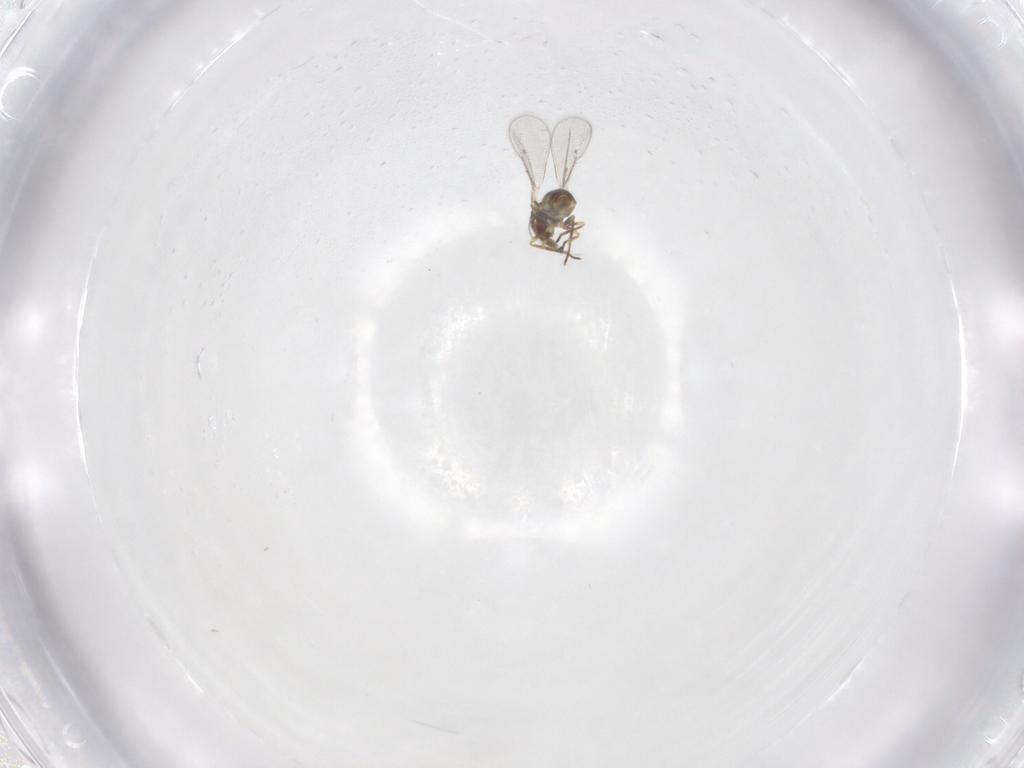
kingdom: Animalia
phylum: Arthropoda
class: Insecta
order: Hymenoptera
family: Eulophidae
